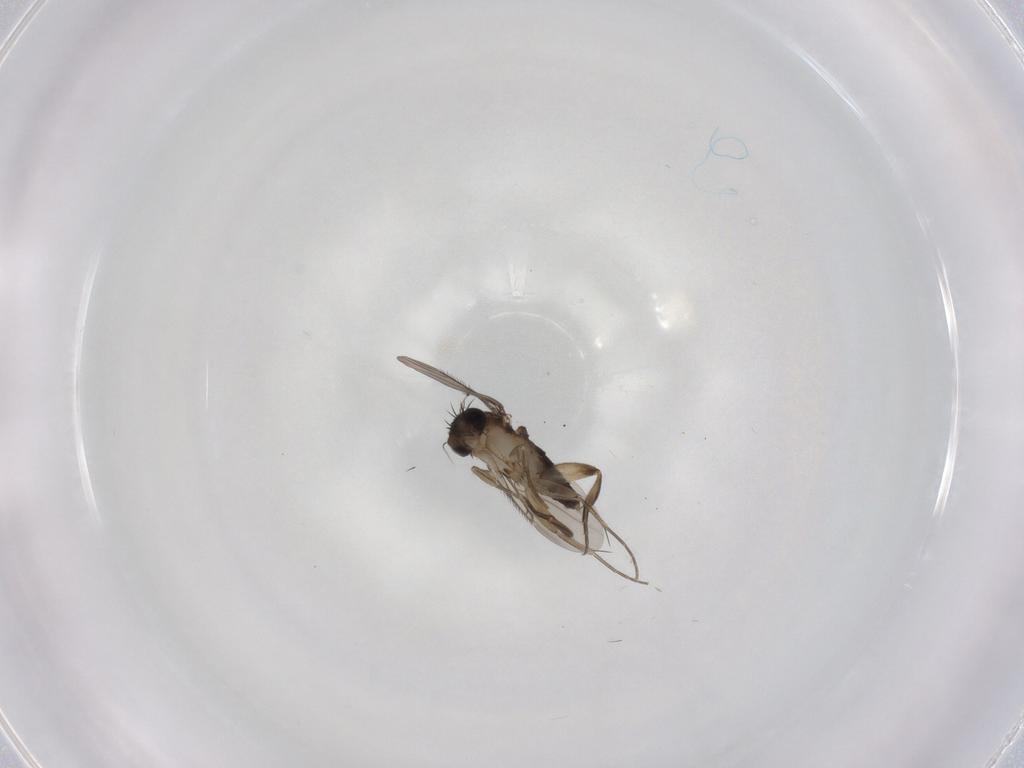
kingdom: Animalia
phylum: Arthropoda
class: Insecta
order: Diptera
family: Phoridae
